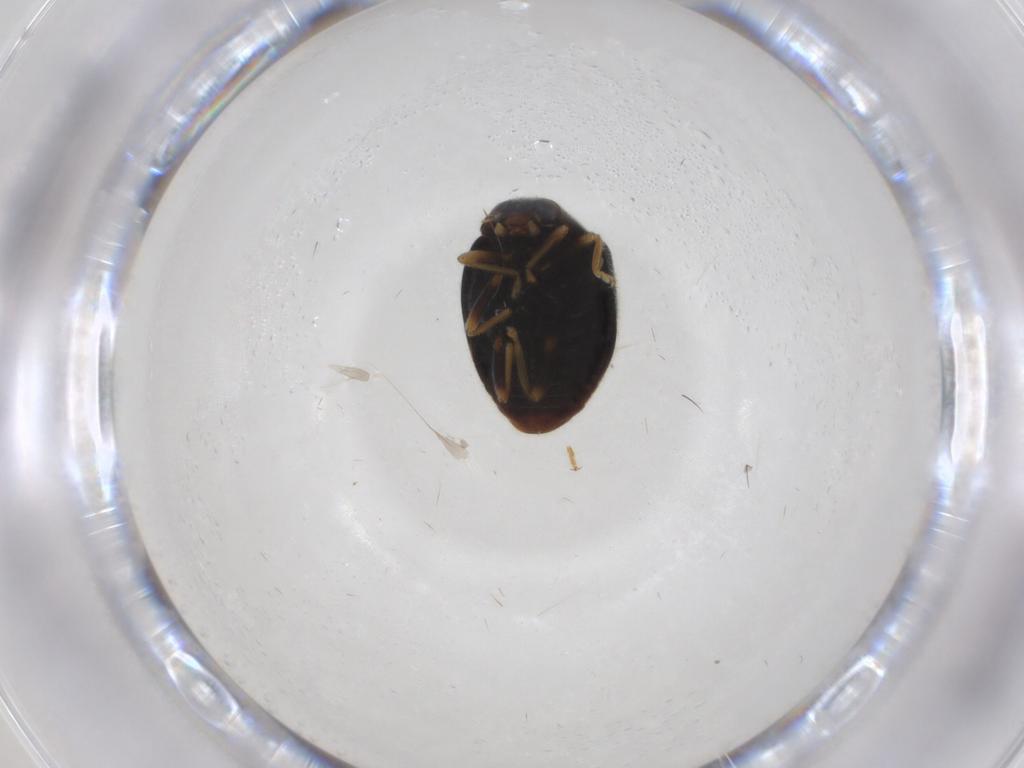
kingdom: Animalia
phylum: Arthropoda
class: Insecta
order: Coleoptera
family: Coccinellidae
